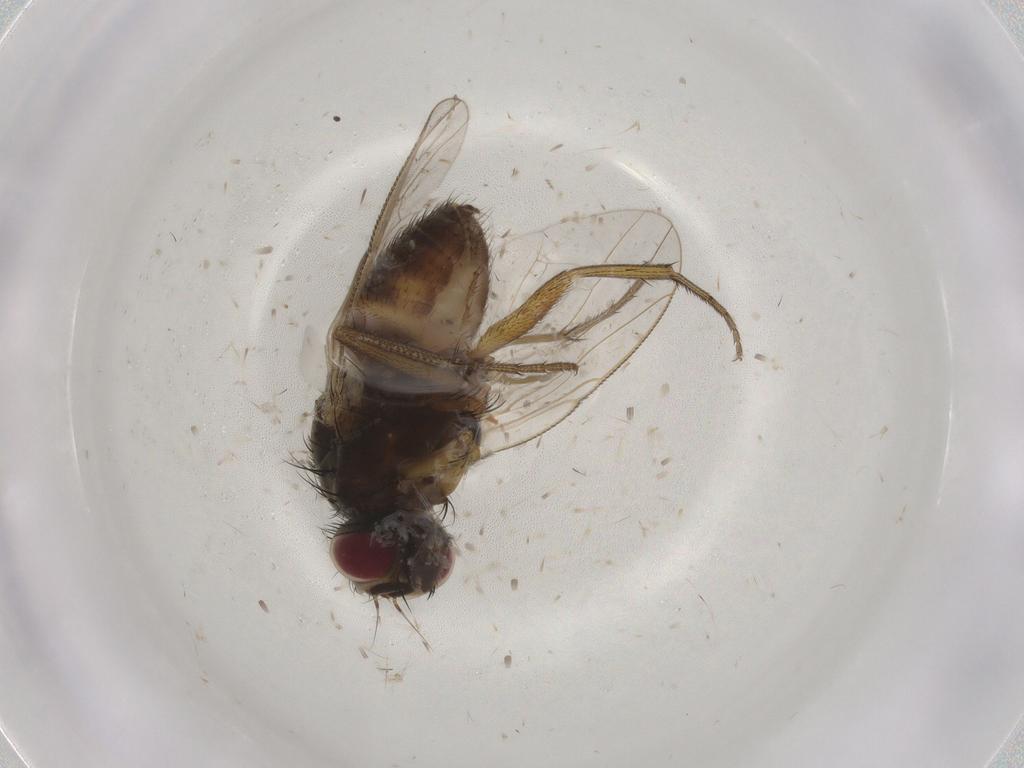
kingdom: Animalia
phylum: Arthropoda
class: Insecta
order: Diptera
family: Muscidae
